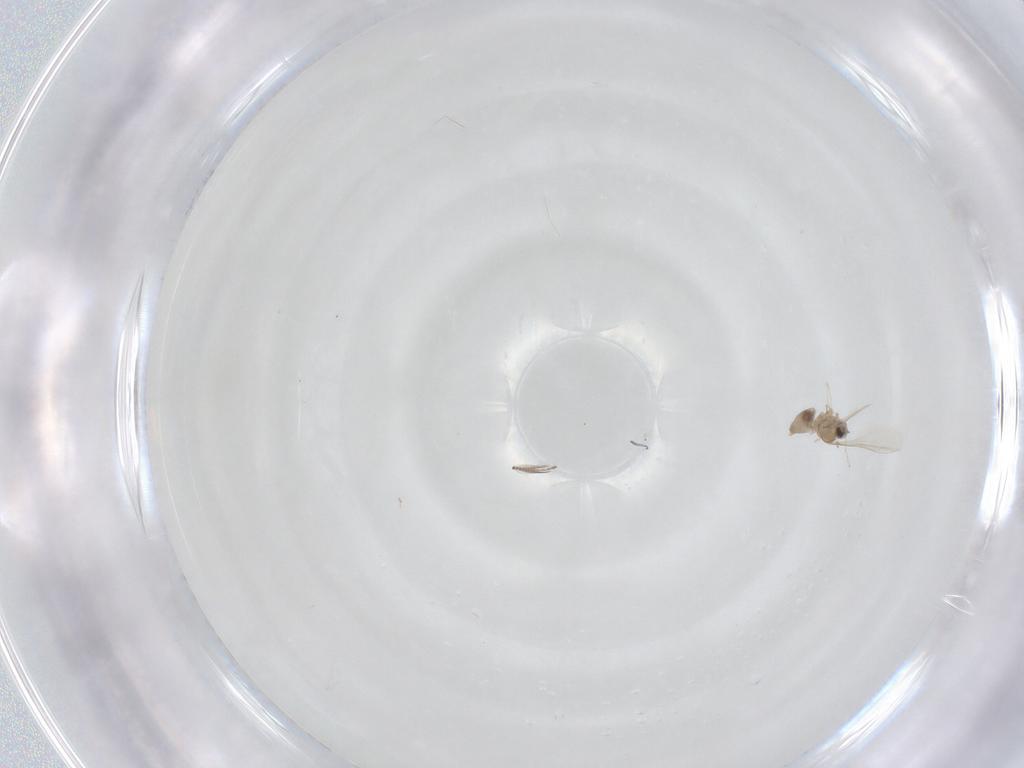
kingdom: Animalia
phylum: Arthropoda
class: Insecta
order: Diptera
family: Cecidomyiidae
